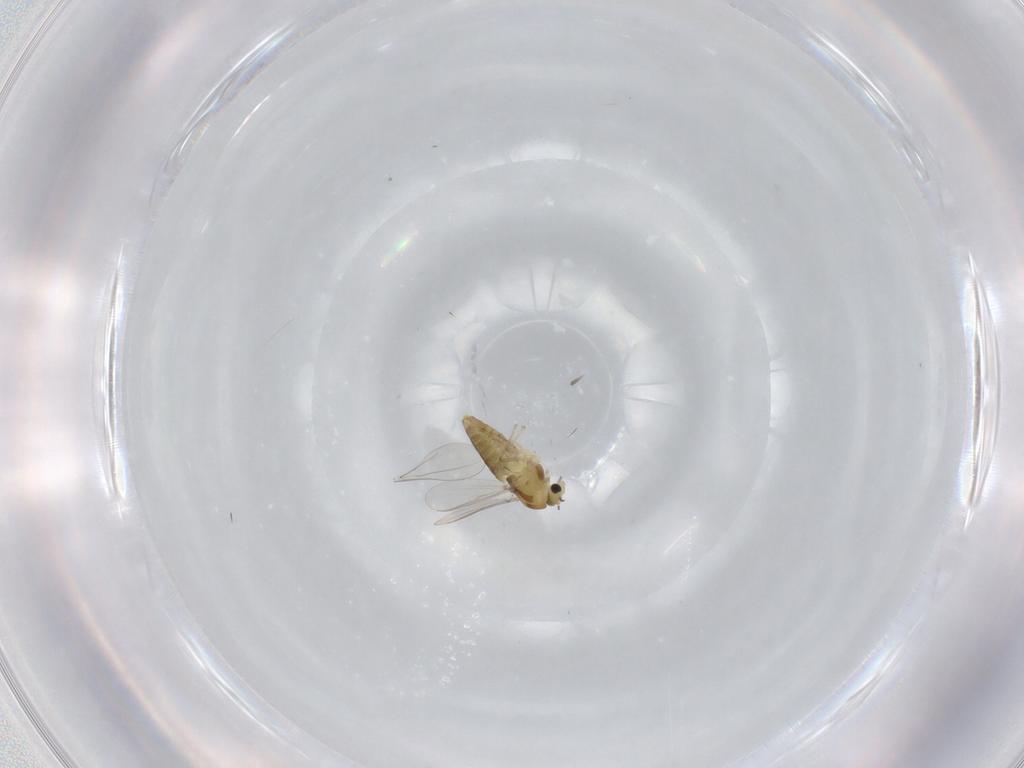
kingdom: Animalia
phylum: Arthropoda
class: Insecta
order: Diptera
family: Chironomidae
